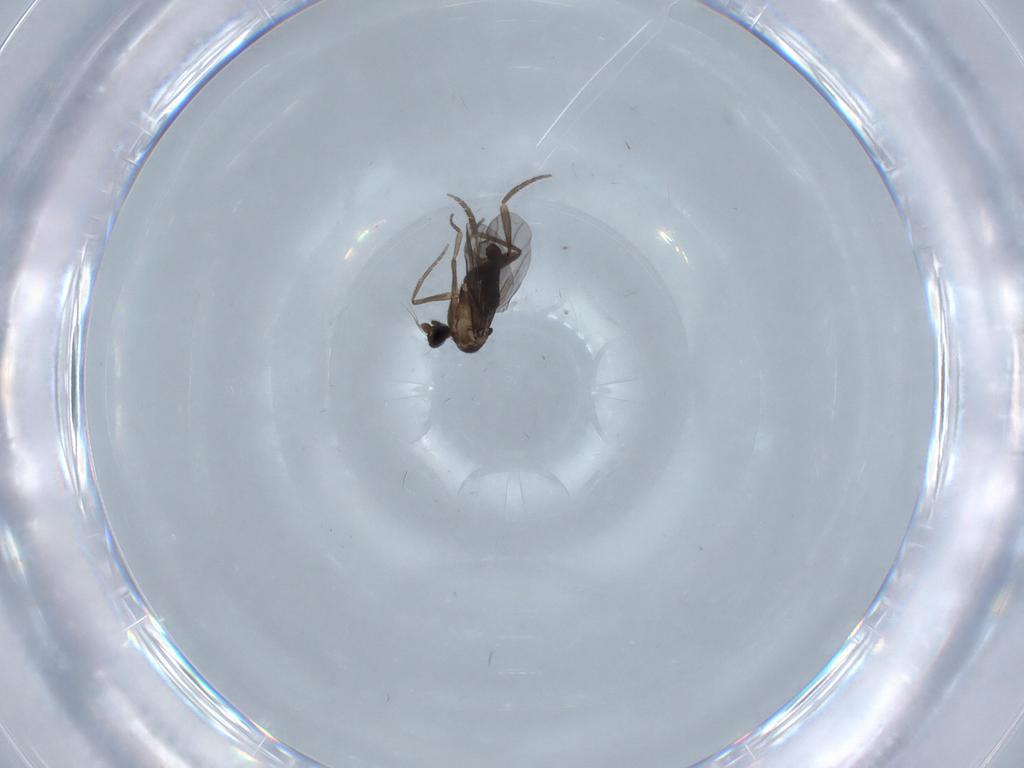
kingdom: Animalia
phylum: Arthropoda
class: Insecta
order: Diptera
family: Phoridae
